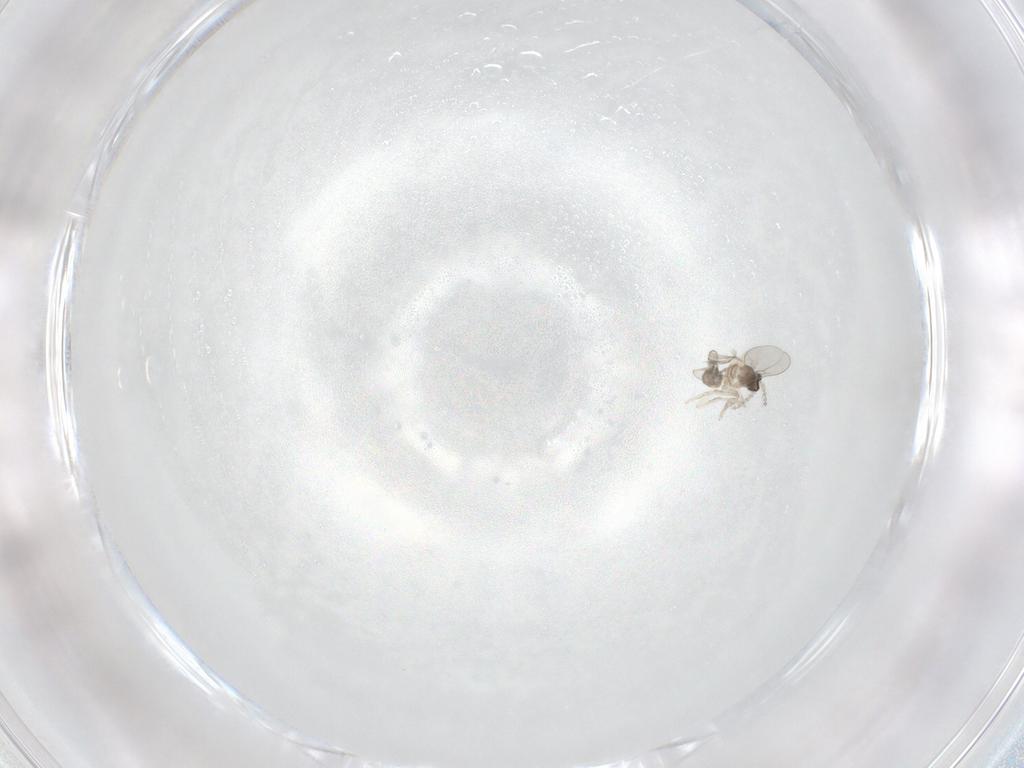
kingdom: Animalia
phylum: Arthropoda
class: Insecta
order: Diptera
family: Cecidomyiidae
